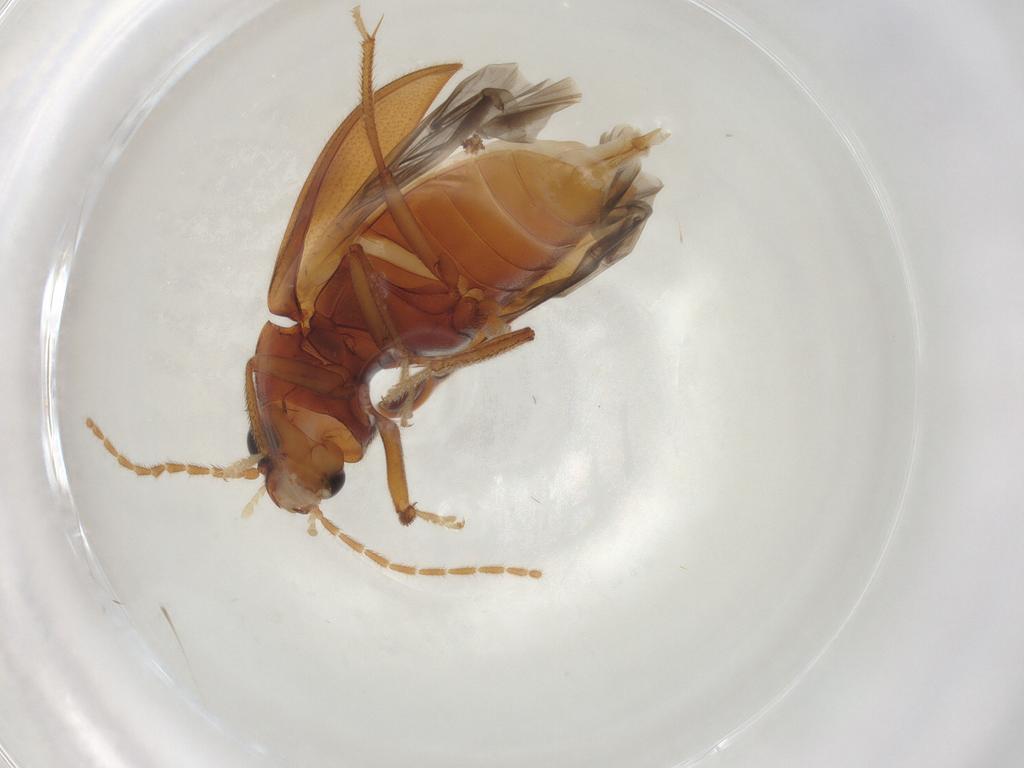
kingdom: Animalia
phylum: Arthropoda
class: Insecta
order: Coleoptera
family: Ptilodactylidae
